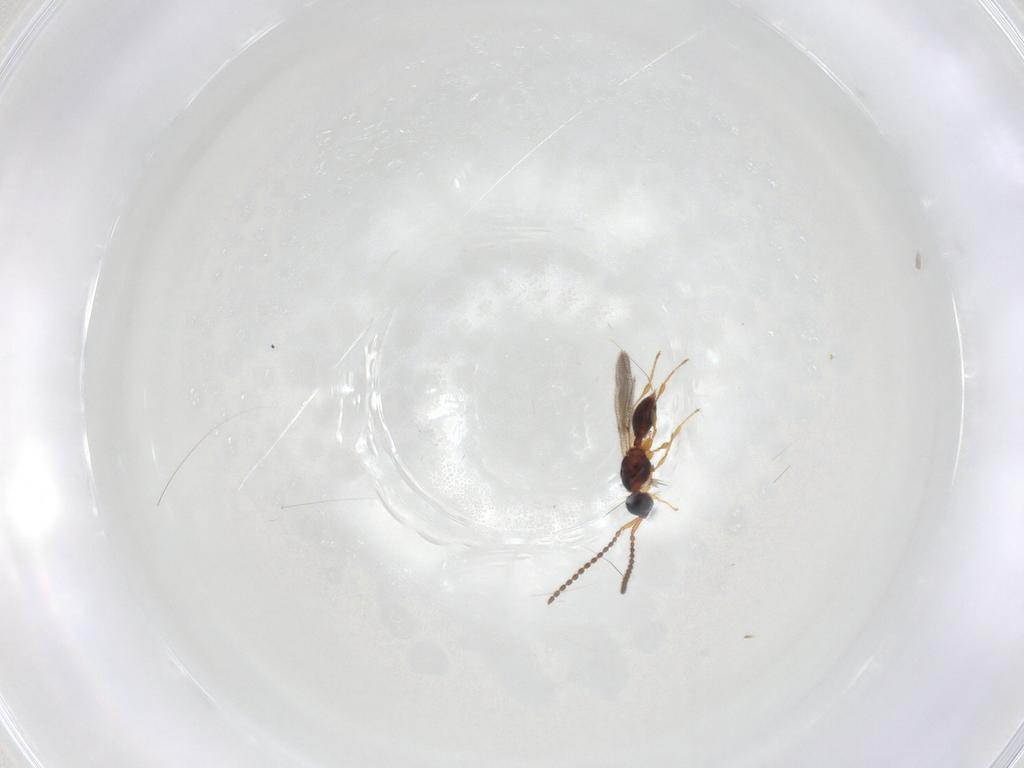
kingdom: Animalia
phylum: Arthropoda
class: Insecta
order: Hymenoptera
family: Diapriidae
